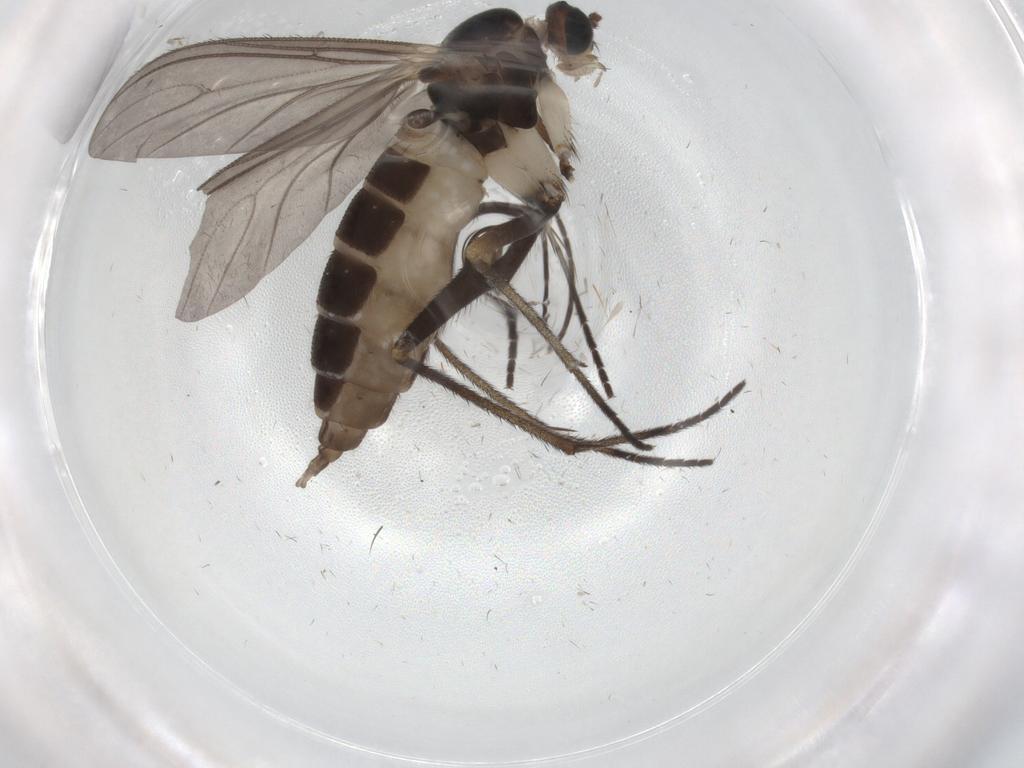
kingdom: Animalia
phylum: Arthropoda
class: Insecta
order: Diptera
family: Sciaridae
